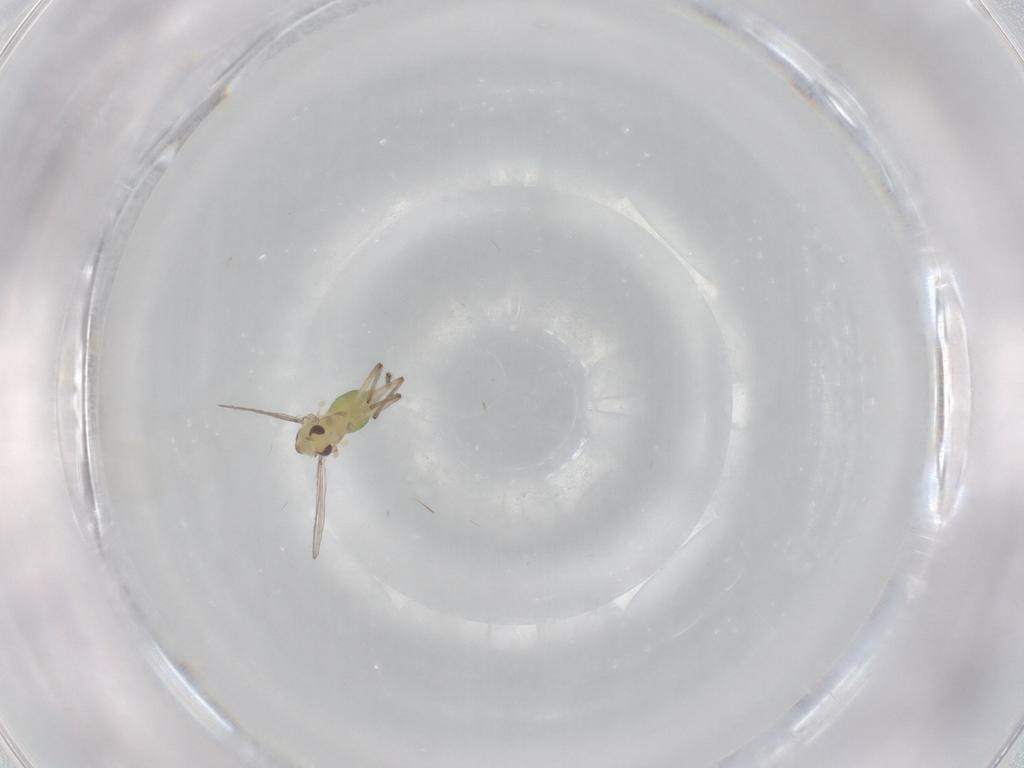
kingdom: Animalia
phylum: Arthropoda
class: Insecta
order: Diptera
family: Chironomidae
